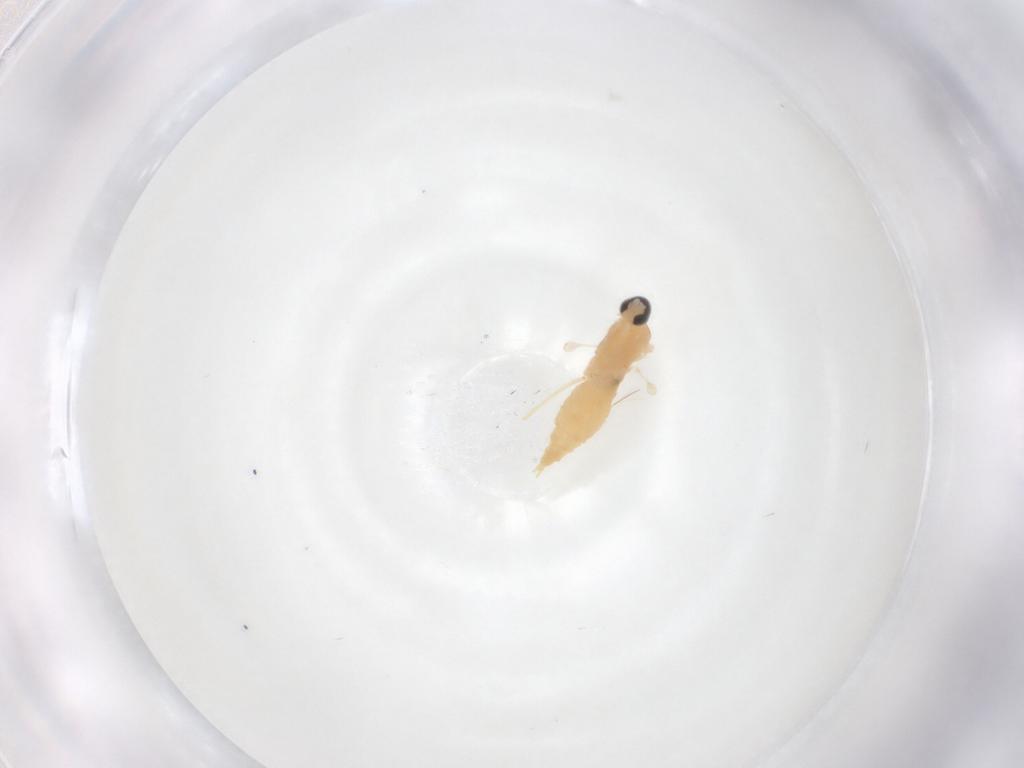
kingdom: Animalia
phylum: Arthropoda
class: Insecta
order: Diptera
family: Cecidomyiidae
